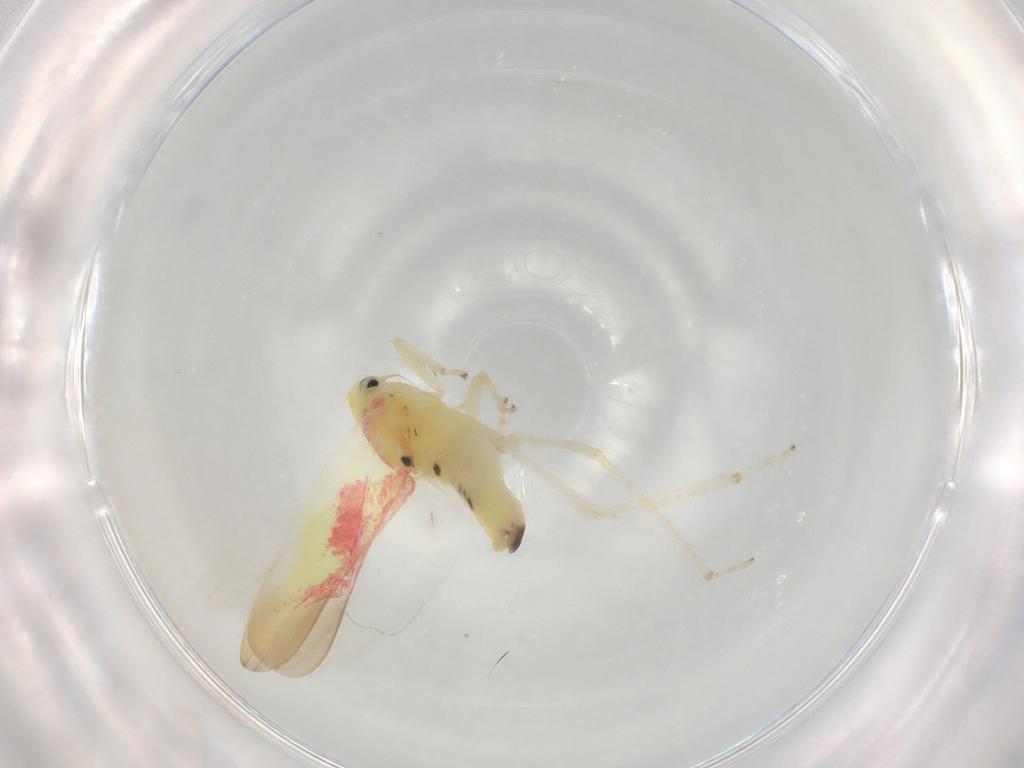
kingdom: Animalia
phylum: Arthropoda
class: Insecta
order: Hemiptera
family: Cicadellidae
